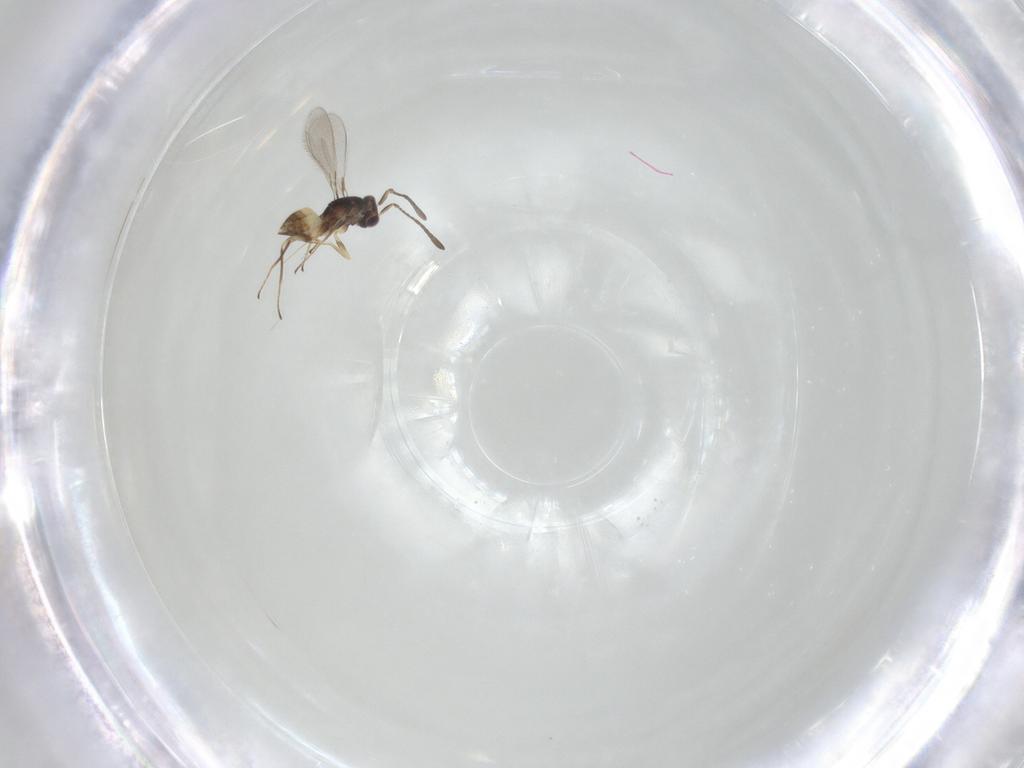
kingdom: Animalia
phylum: Arthropoda
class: Insecta
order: Hymenoptera
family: Mymaridae
